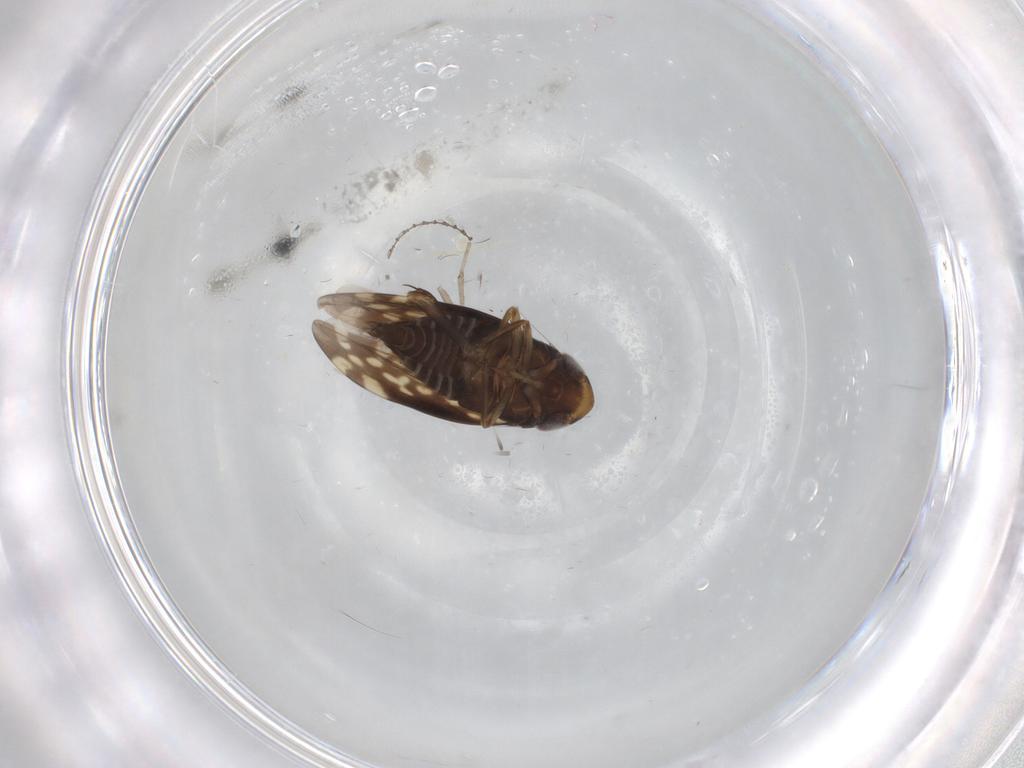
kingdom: Animalia
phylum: Arthropoda
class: Insecta
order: Hemiptera
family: Cicadellidae
